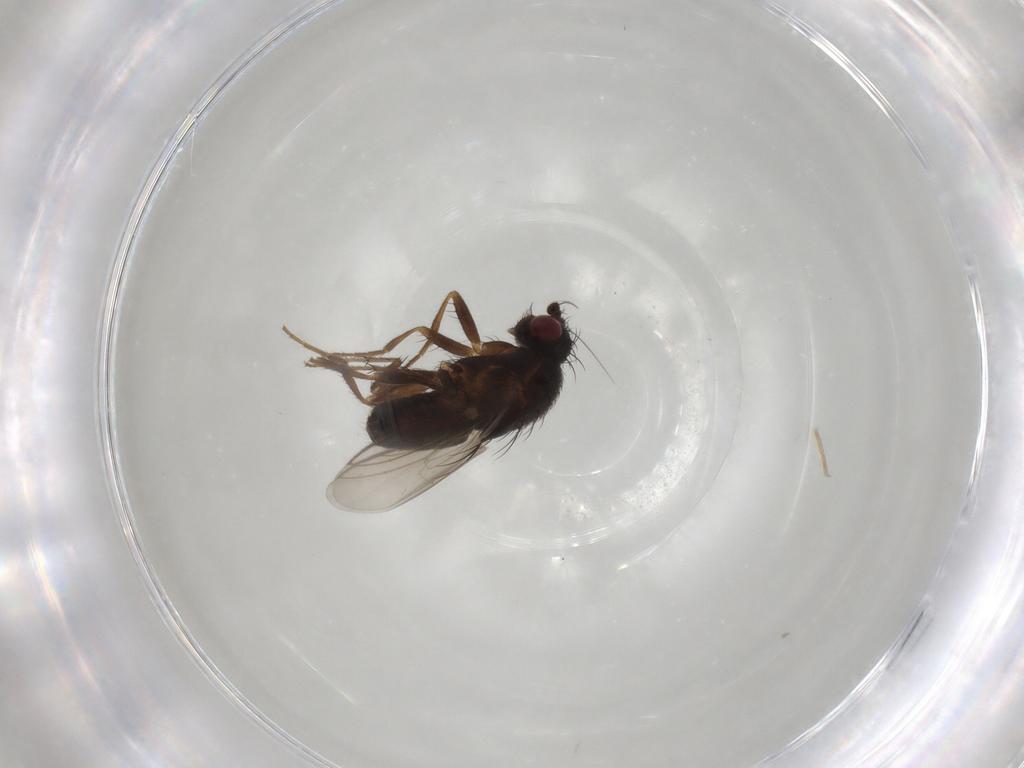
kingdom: Animalia
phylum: Arthropoda
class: Insecta
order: Diptera
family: Sphaeroceridae
